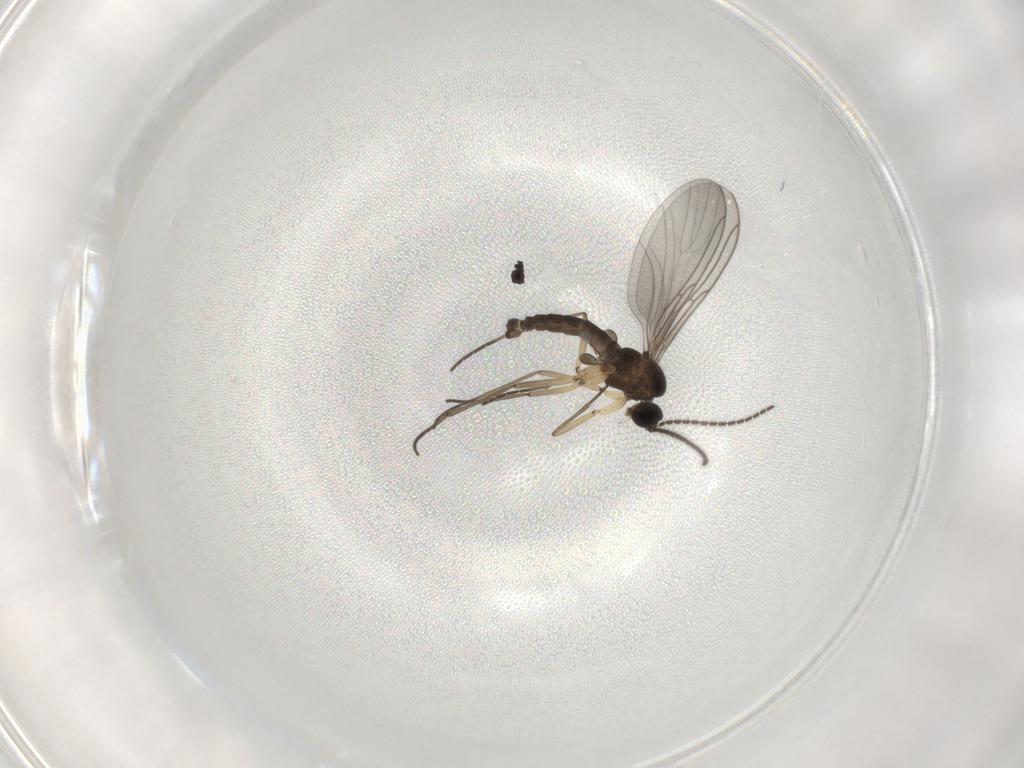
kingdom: Animalia
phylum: Arthropoda
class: Insecta
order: Diptera
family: Sciaridae
